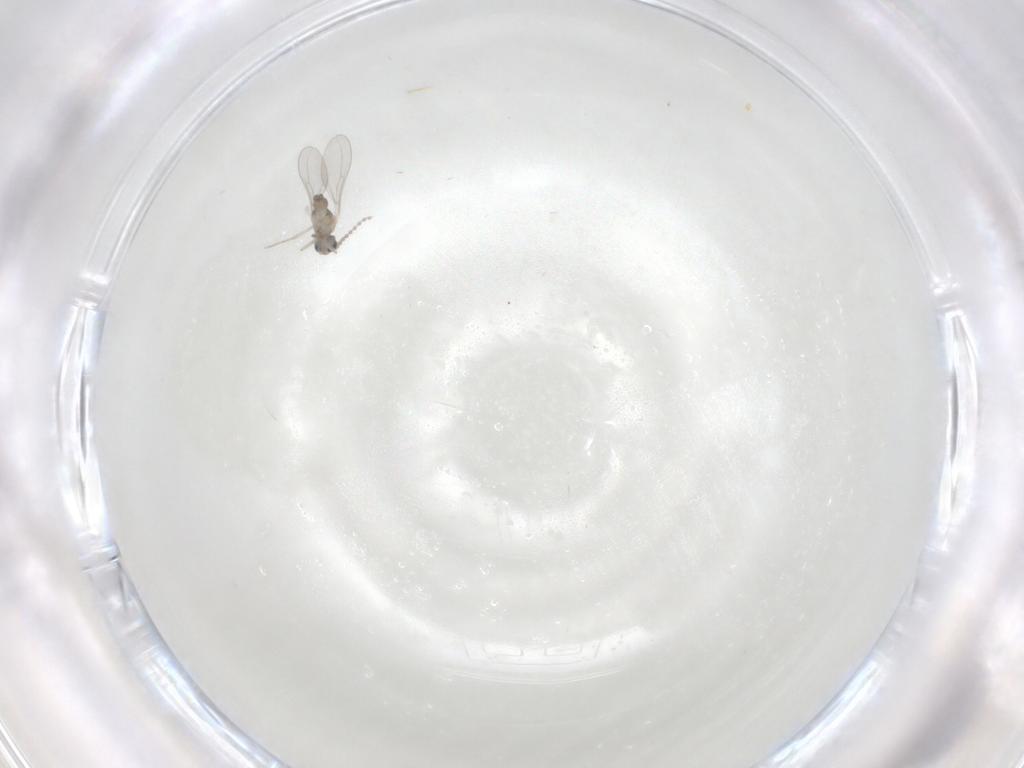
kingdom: Animalia
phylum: Arthropoda
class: Insecta
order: Diptera
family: Cecidomyiidae
